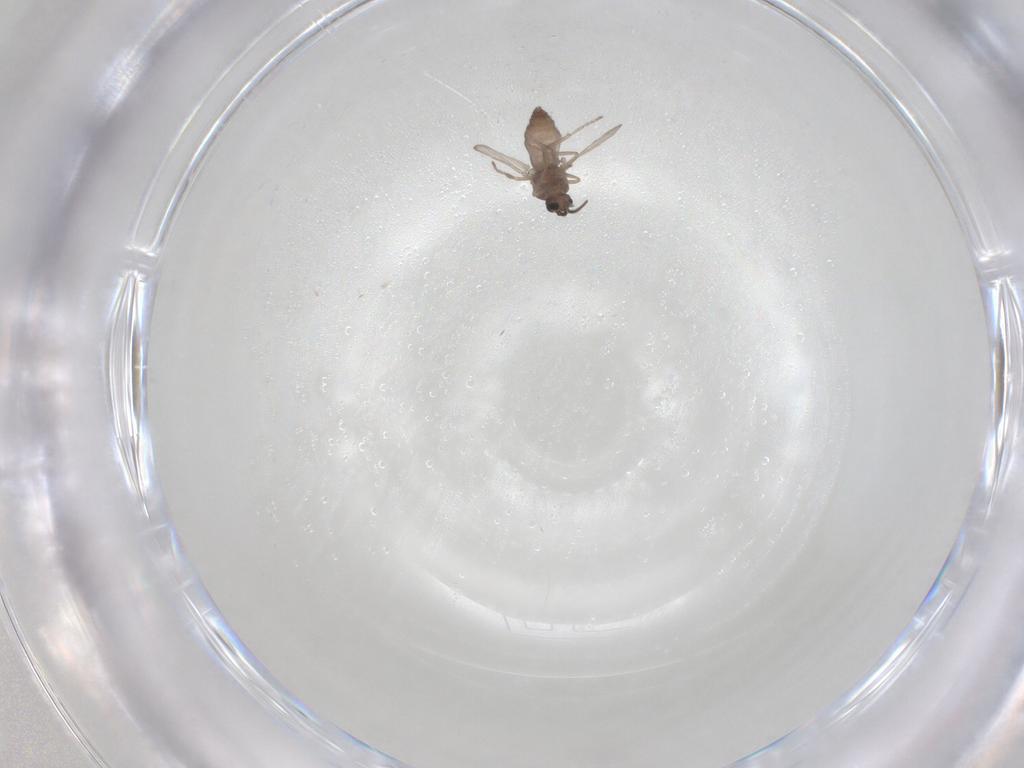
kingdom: Animalia
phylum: Arthropoda
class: Insecta
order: Diptera
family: Ceratopogonidae
